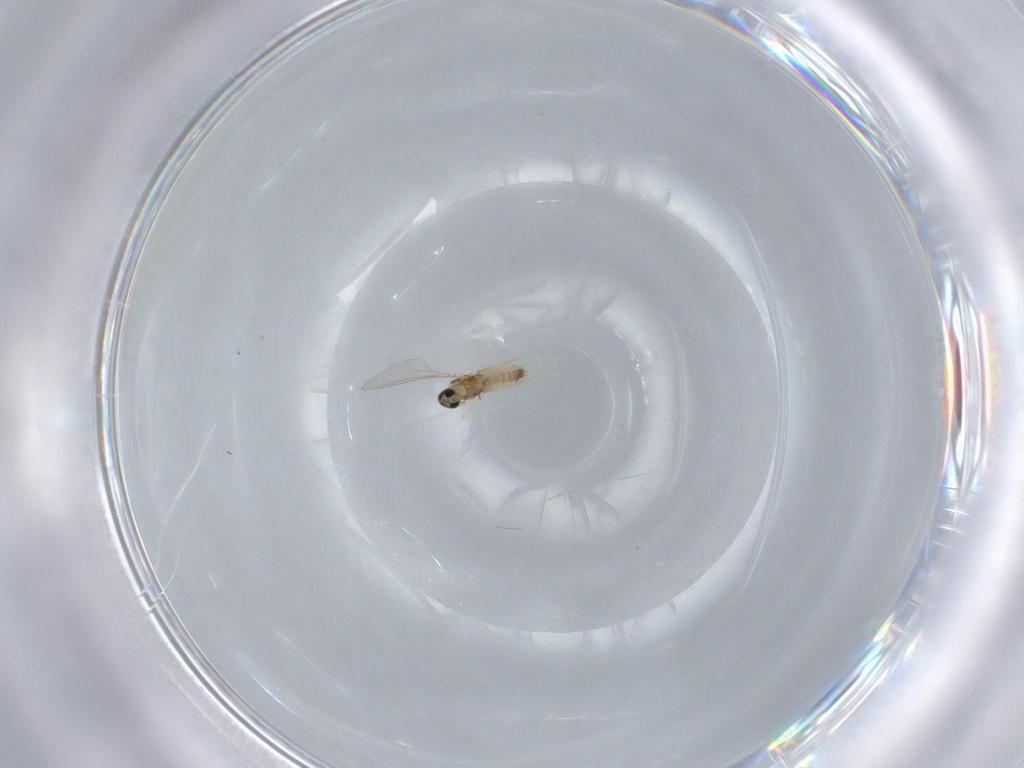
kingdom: Animalia
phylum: Arthropoda
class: Insecta
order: Diptera
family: Cecidomyiidae
